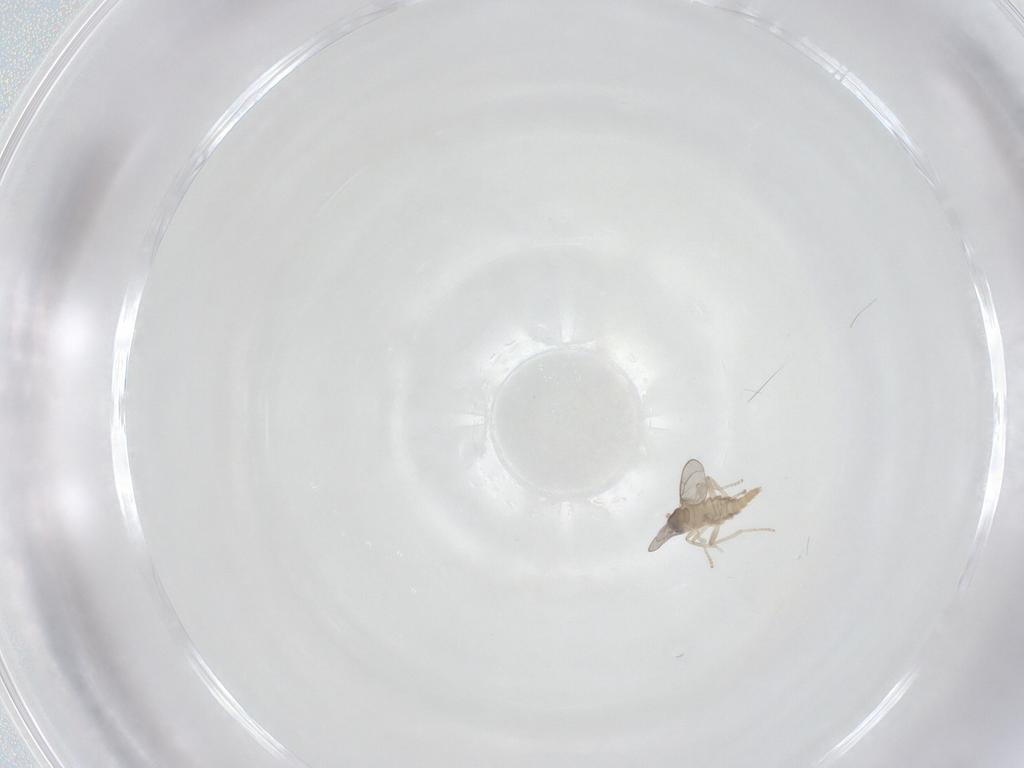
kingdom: Animalia
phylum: Arthropoda
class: Insecta
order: Diptera
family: Cecidomyiidae
